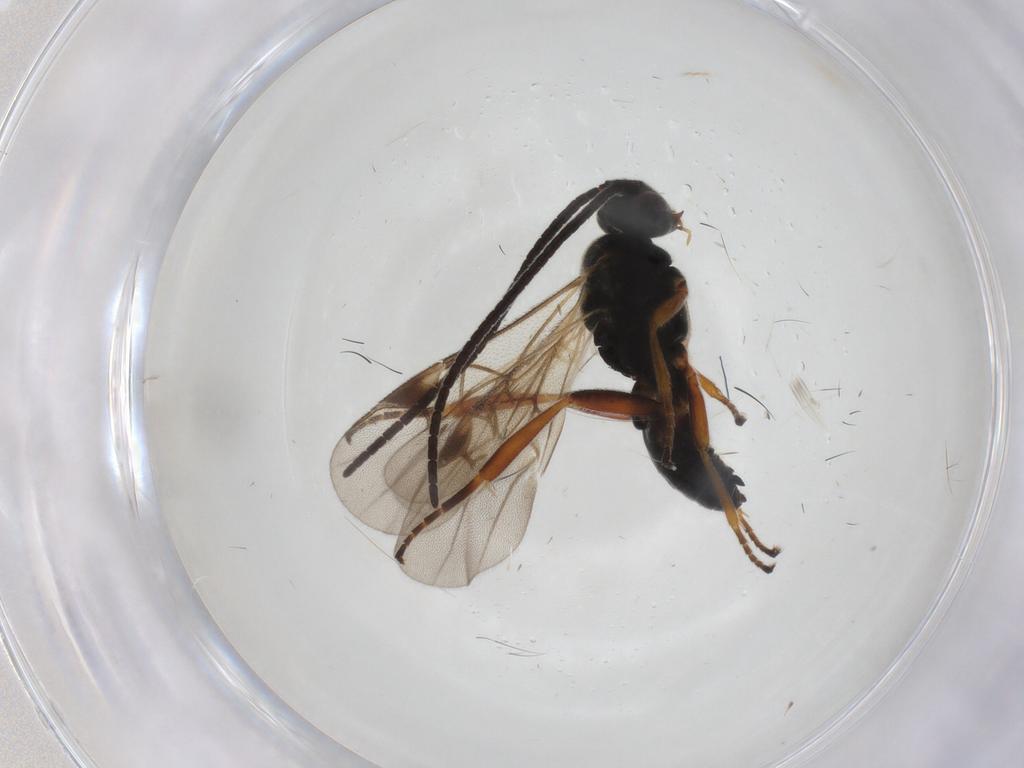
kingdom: Animalia
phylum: Arthropoda
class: Insecta
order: Hymenoptera
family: Braconidae
